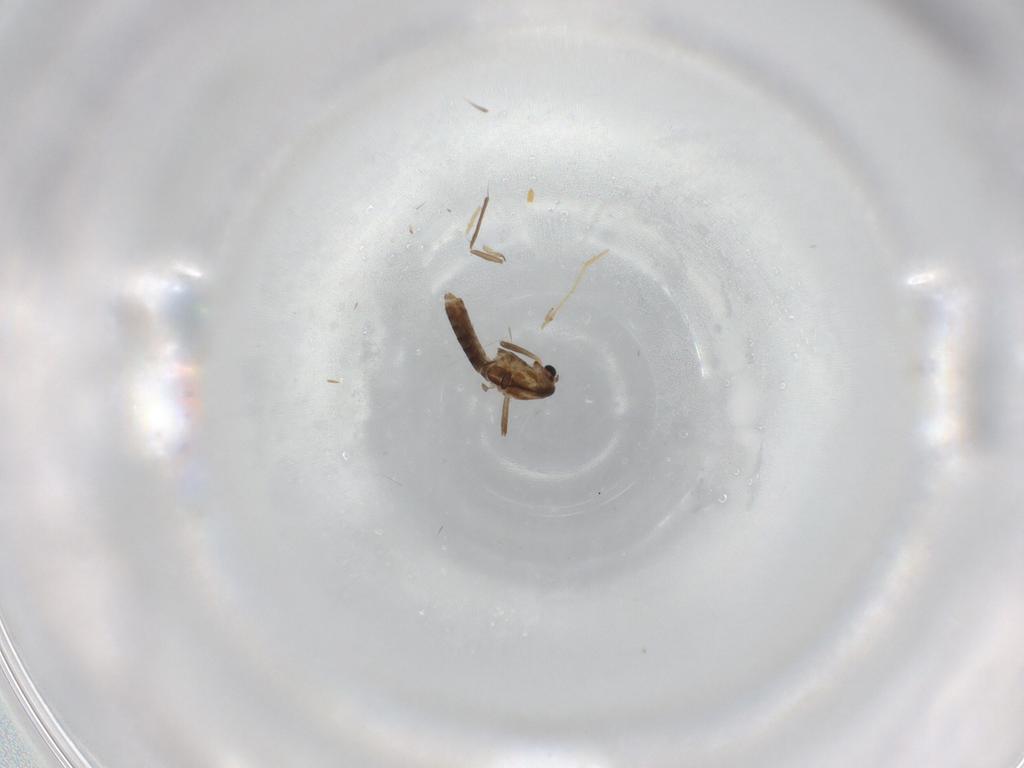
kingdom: Animalia
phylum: Arthropoda
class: Insecta
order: Diptera
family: Chironomidae
